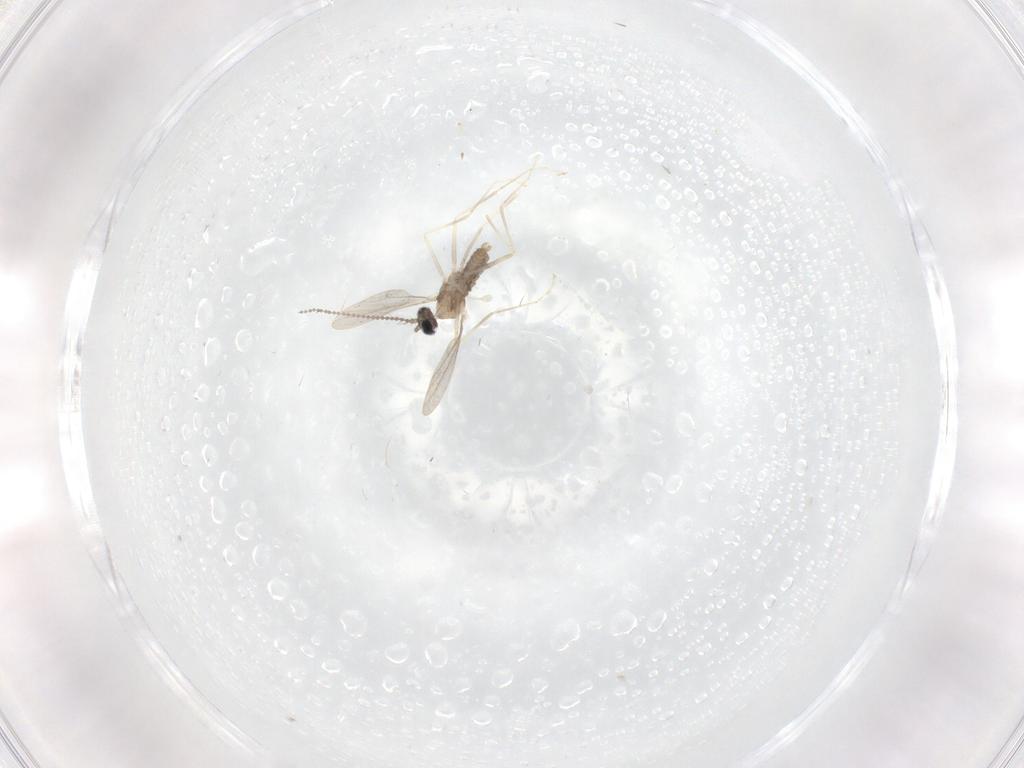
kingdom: Animalia
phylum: Arthropoda
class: Insecta
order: Diptera
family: Cecidomyiidae
